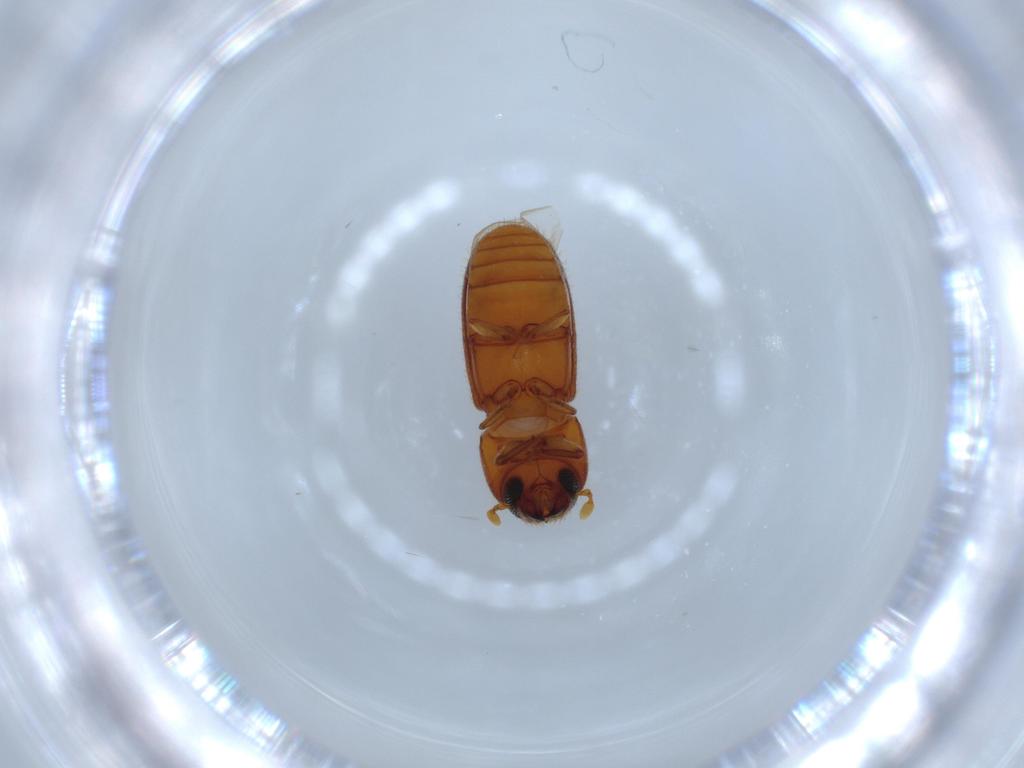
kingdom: Animalia
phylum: Arthropoda
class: Insecta
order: Coleoptera
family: Curculionidae
